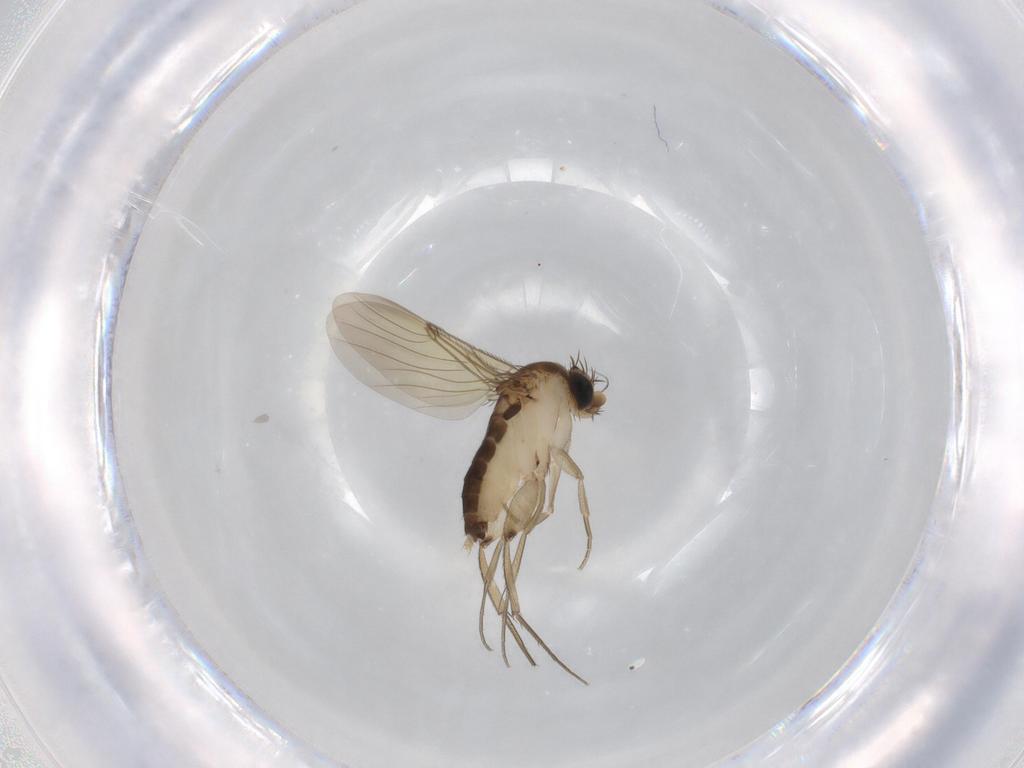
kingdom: Animalia
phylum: Arthropoda
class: Insecta
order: Diptera
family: Phoridae
